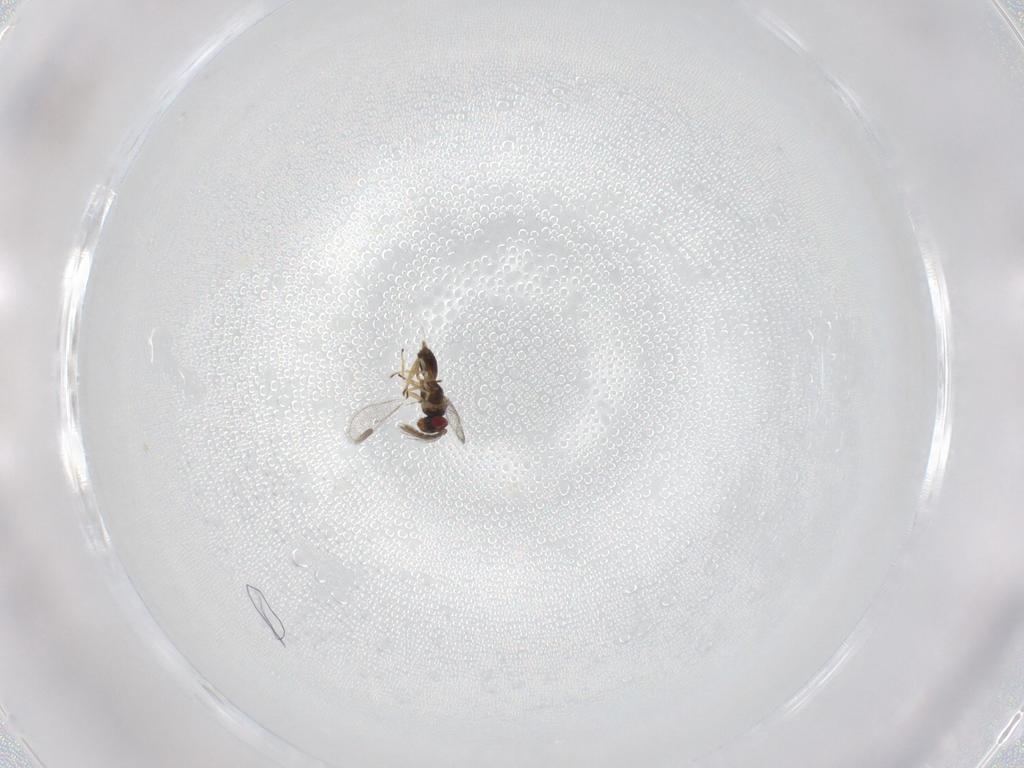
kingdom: Animalia
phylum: Arthropoda
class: Insecta
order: Hymenoptera
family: Eulophidae
